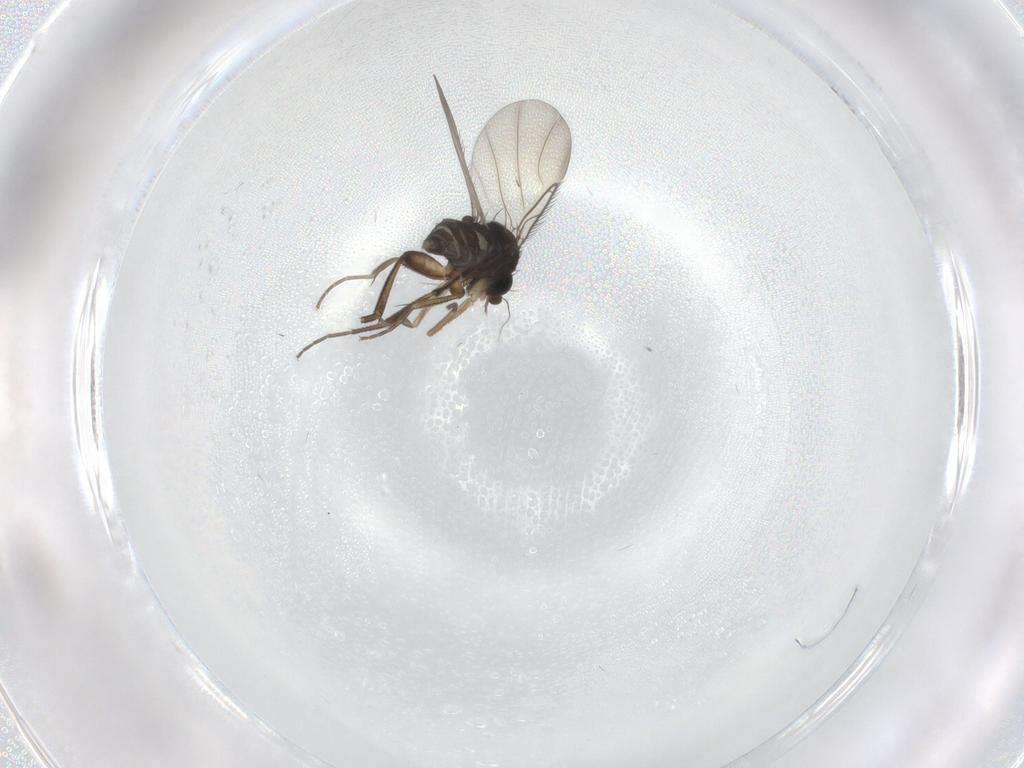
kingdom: Animalia
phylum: Arthropoda
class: Insecta
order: Diptera
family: Phoridae
